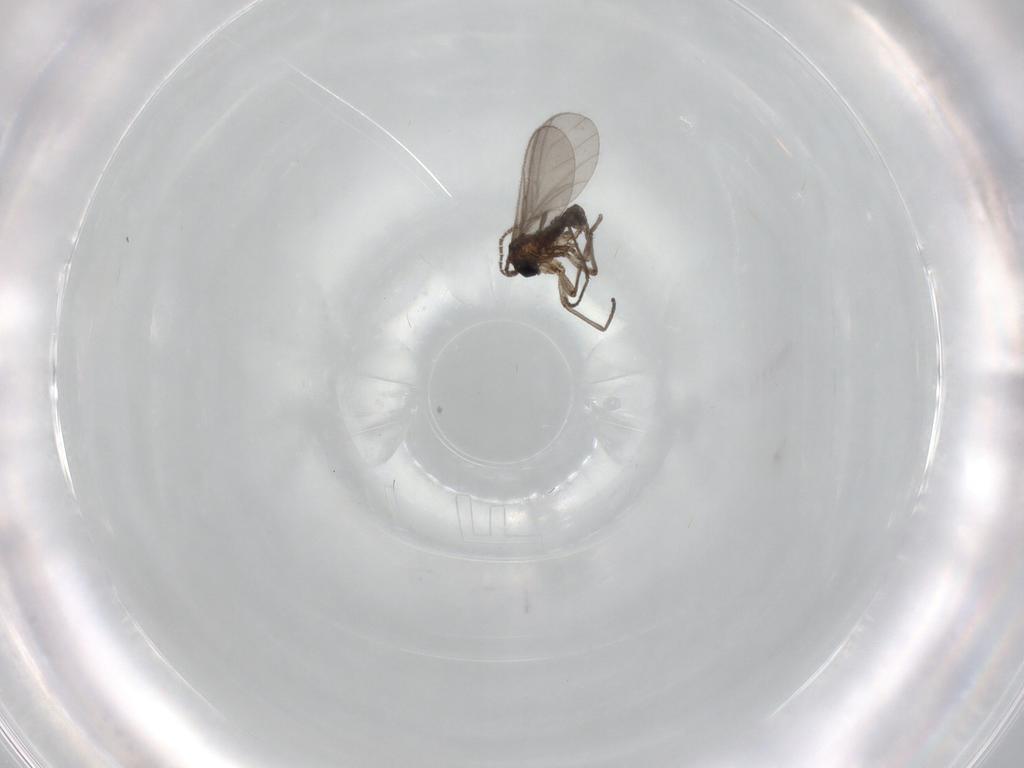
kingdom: Animalia
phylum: Arthropoda
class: Insecta
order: Diptera
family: Sciaridae
